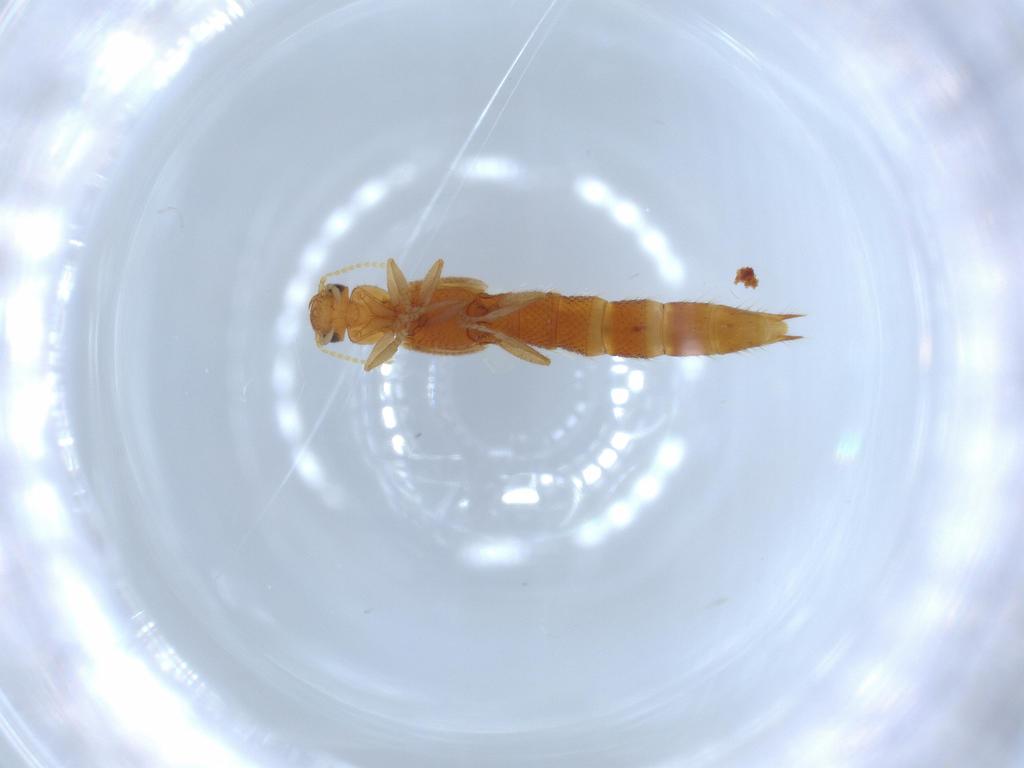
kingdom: Animalia
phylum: Arthropoda
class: Insecta
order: Coleoptera
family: Staphylinidae
